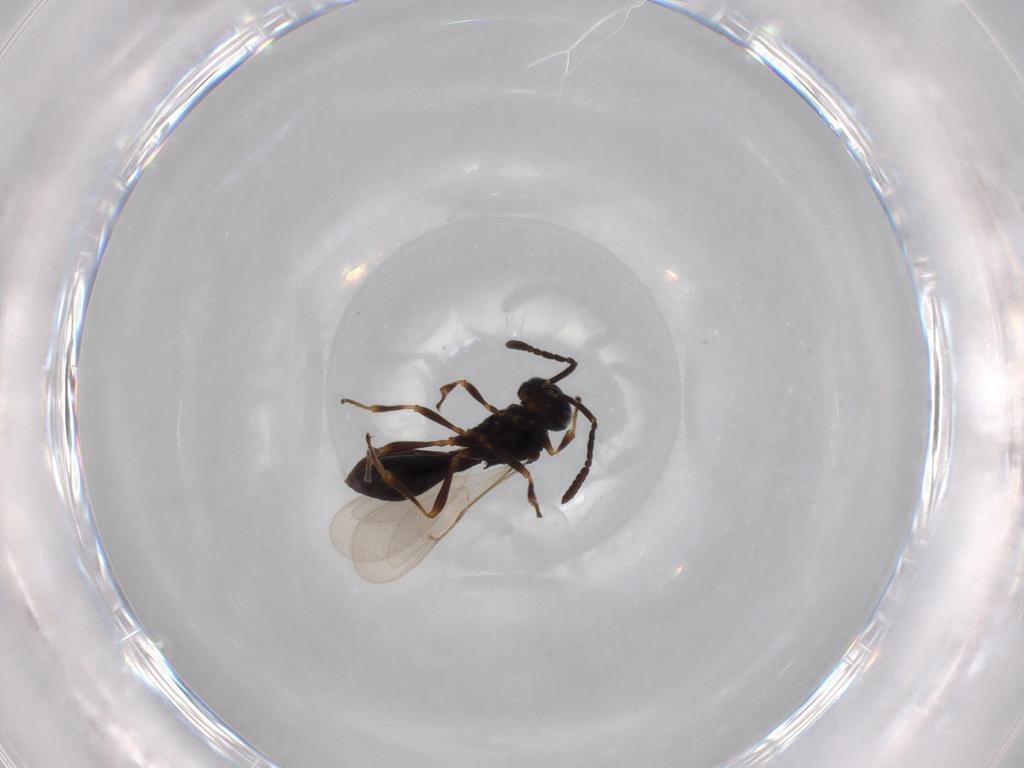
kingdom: Animalia
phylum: Arthropoda
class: Insecta
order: Hymenoptera
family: Scelionidae
